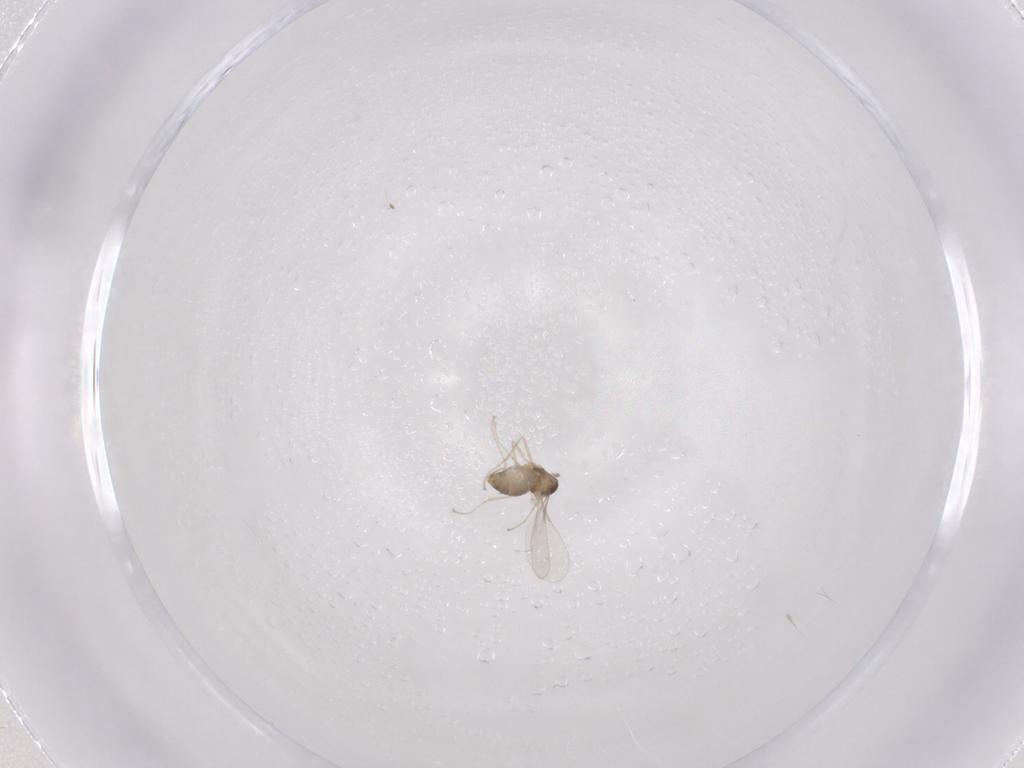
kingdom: Animalia
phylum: Arthropoda
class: Insecta
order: Diptera
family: Cecidomyiidae
